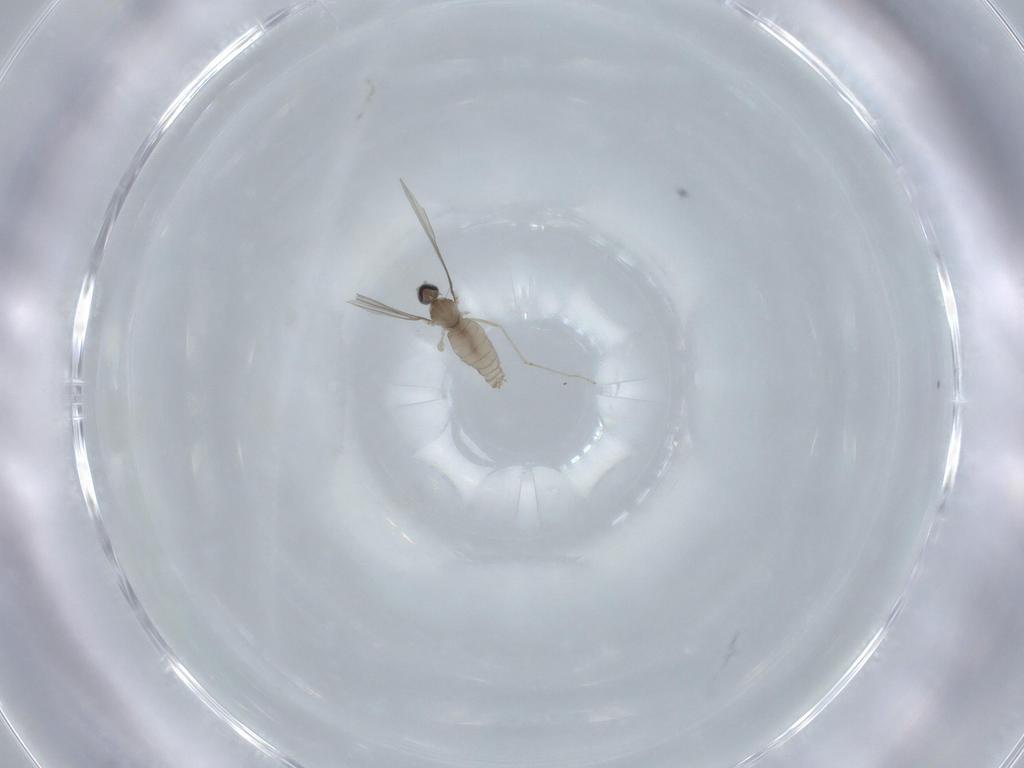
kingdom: Animalia
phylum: Arthropoda
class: Insecta
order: Diptera
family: Cecidomyiidae
